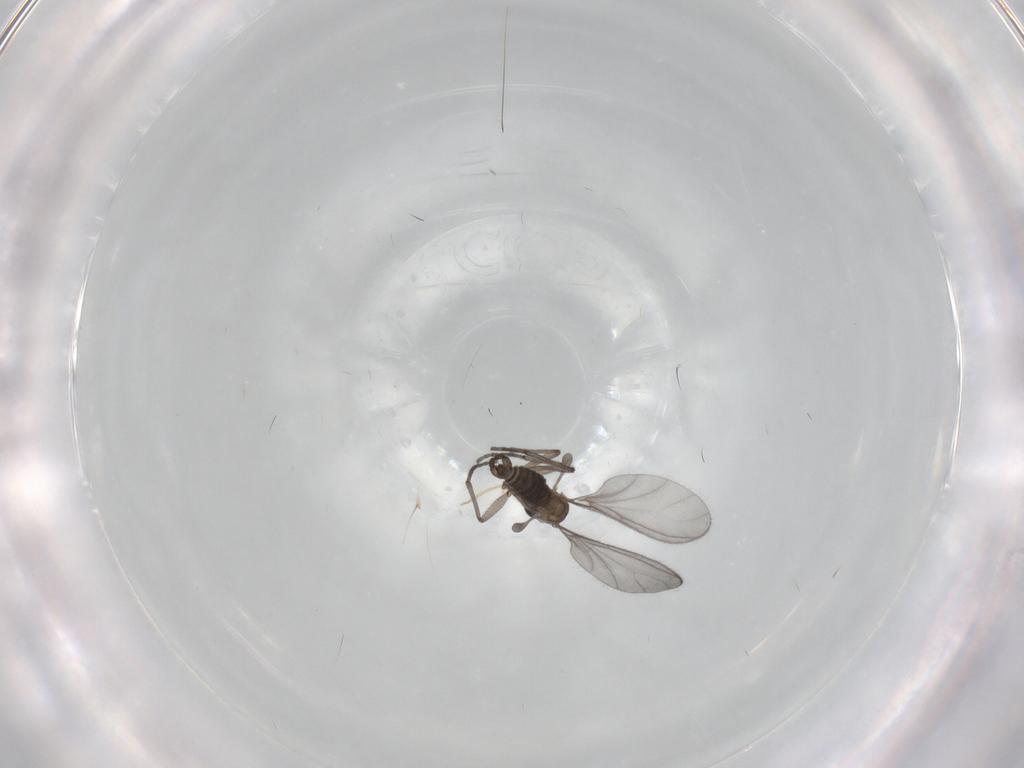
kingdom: Animalia
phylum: Arthropoda
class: Insecta
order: Diptera
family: Sciaridae
